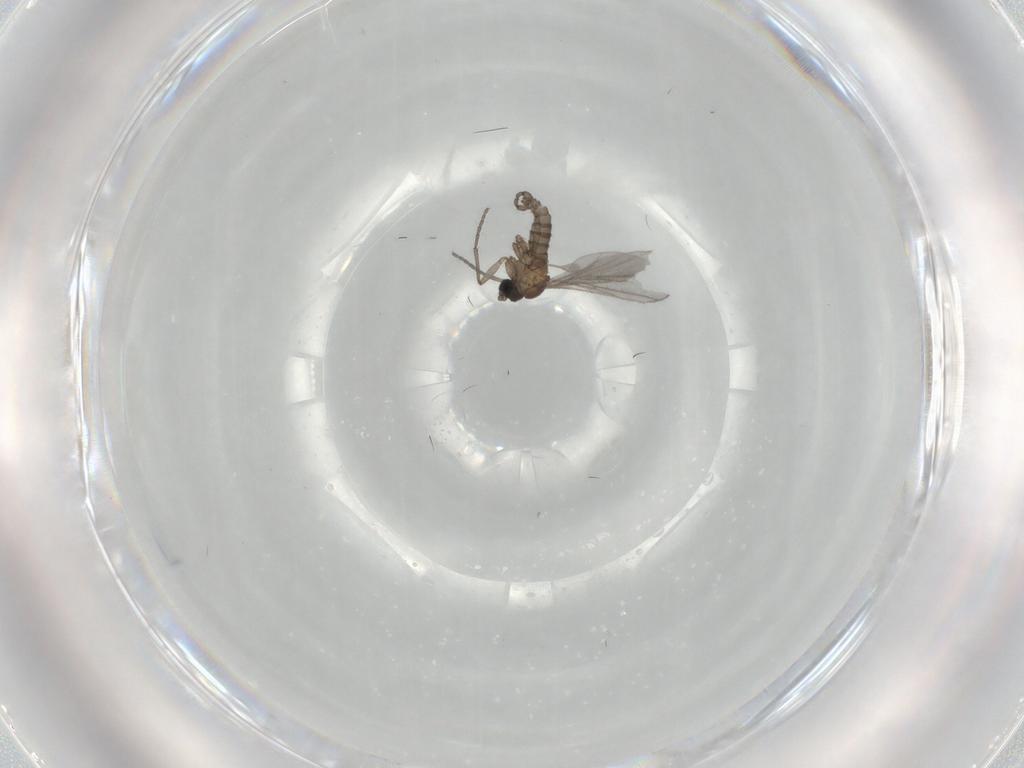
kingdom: Animalia
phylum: Arthropoda
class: Insecta
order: Diptera
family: Sciaridae
